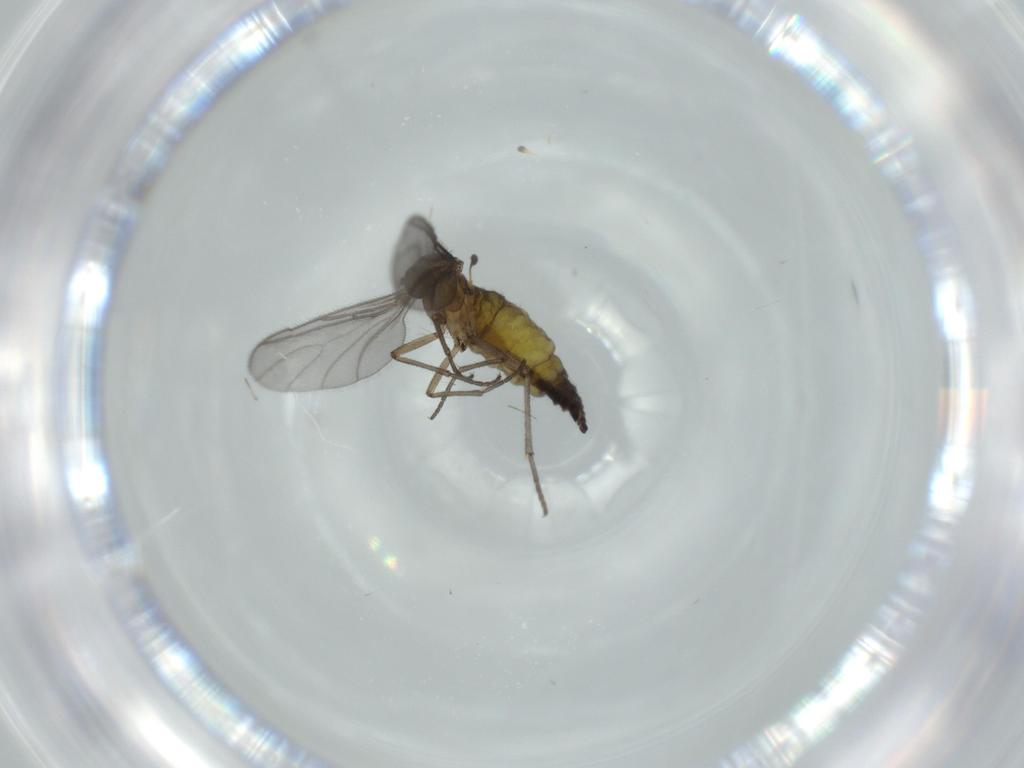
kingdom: Animalia
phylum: Arthropoda
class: Insecta
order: Diptera
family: Sciaridae
